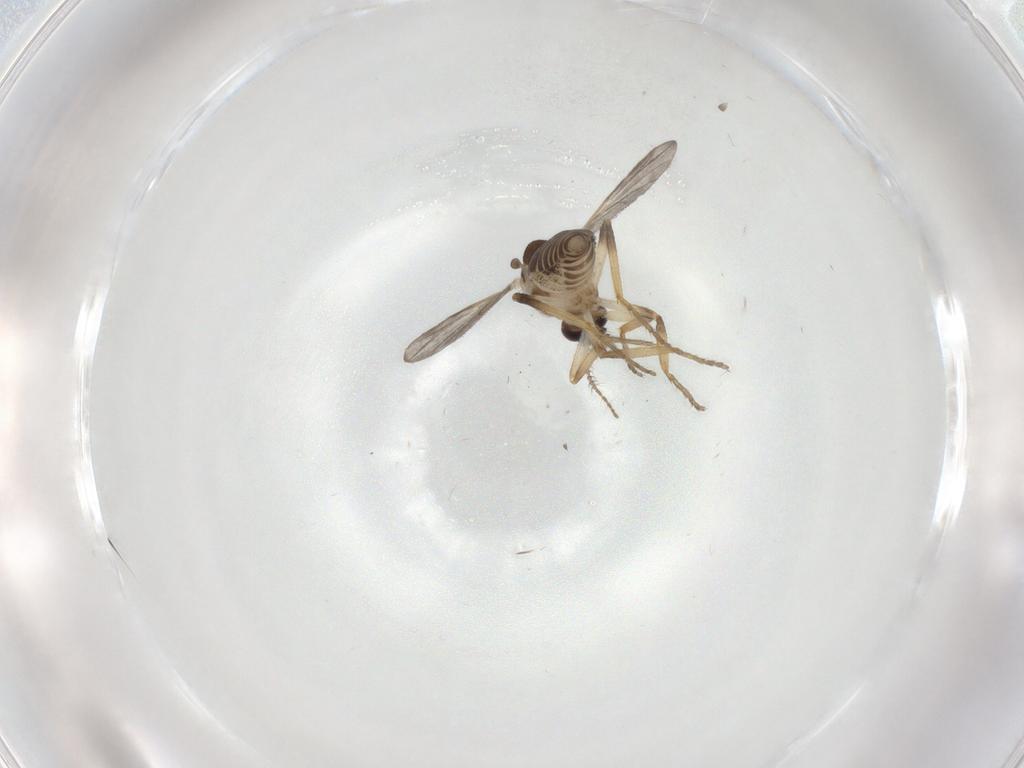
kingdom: Animalia
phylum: Arthropoda
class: Insecta
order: Diptera
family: Ceratopogonidae
